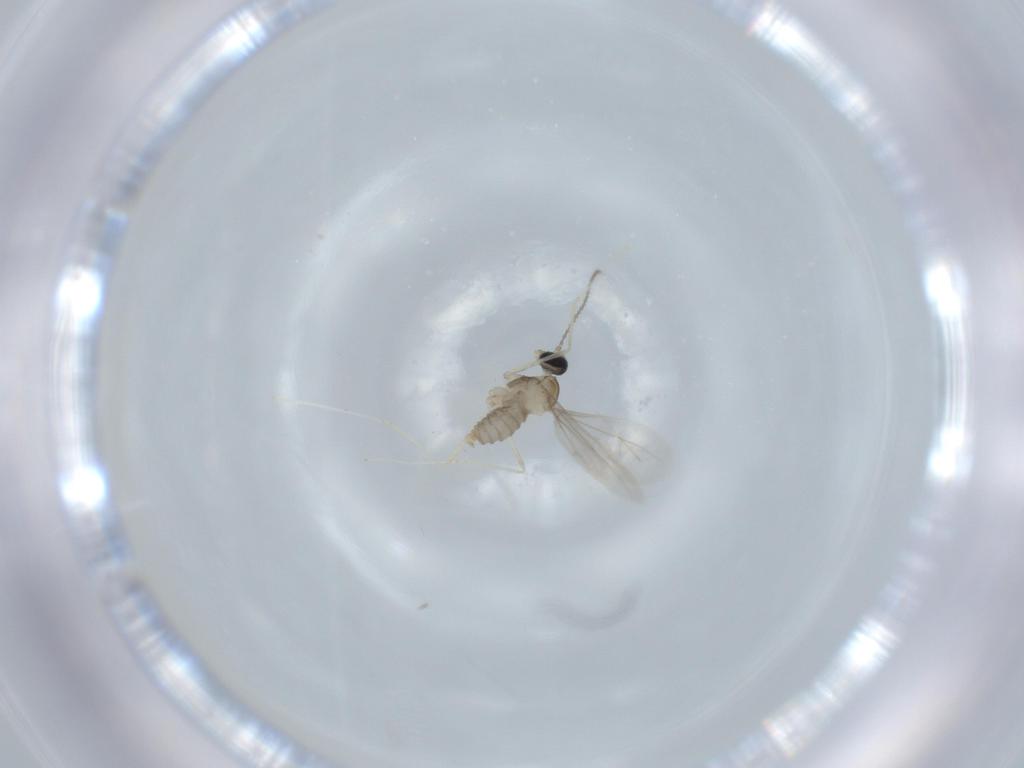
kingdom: Animalia
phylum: Arthropoda
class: Insecta
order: Diptera
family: Cecidomyiidae
